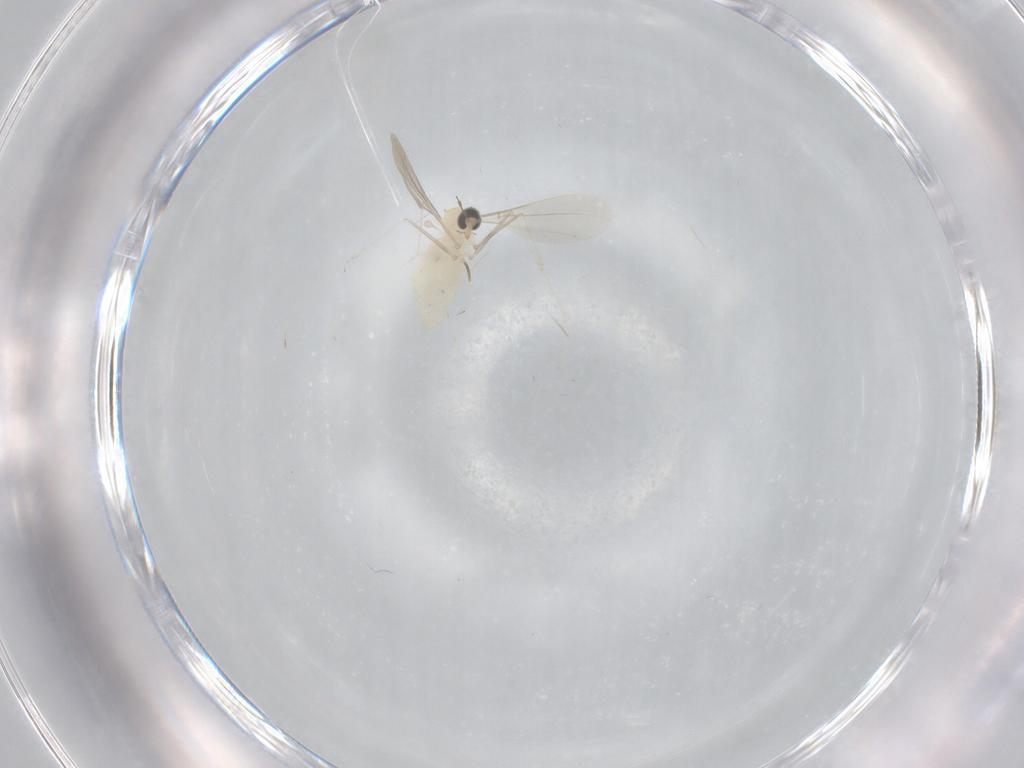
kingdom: Animalia
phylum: Arthropoda
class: Insecta
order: Diptera
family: Cecidomyiidae
